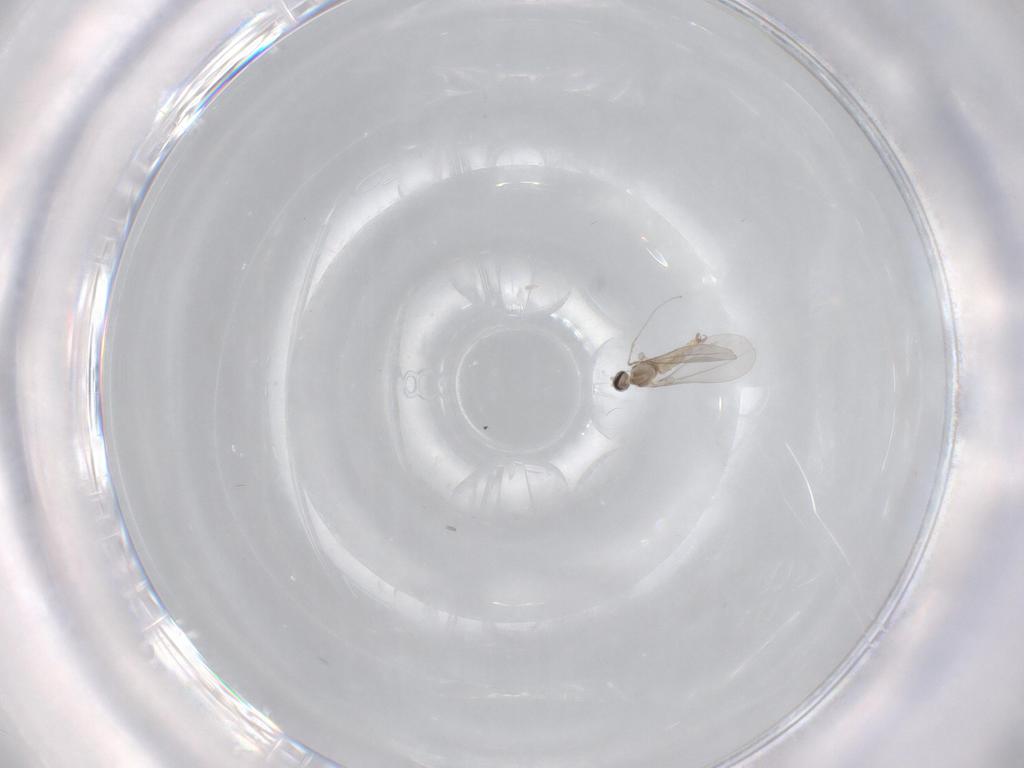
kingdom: Animalia
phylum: Arthropoda
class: Insecta
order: Diptera
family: Cecidomyiidae
